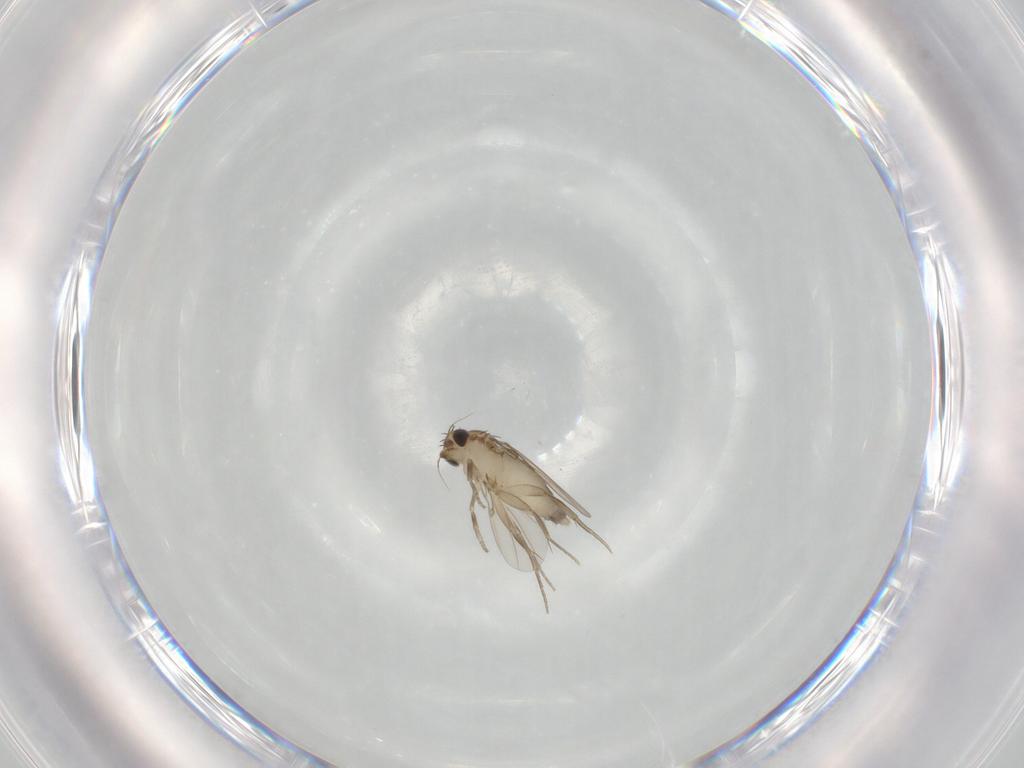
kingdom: Animalia
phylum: Arthropoda
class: Insecta
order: Diptera
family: Phoridae
